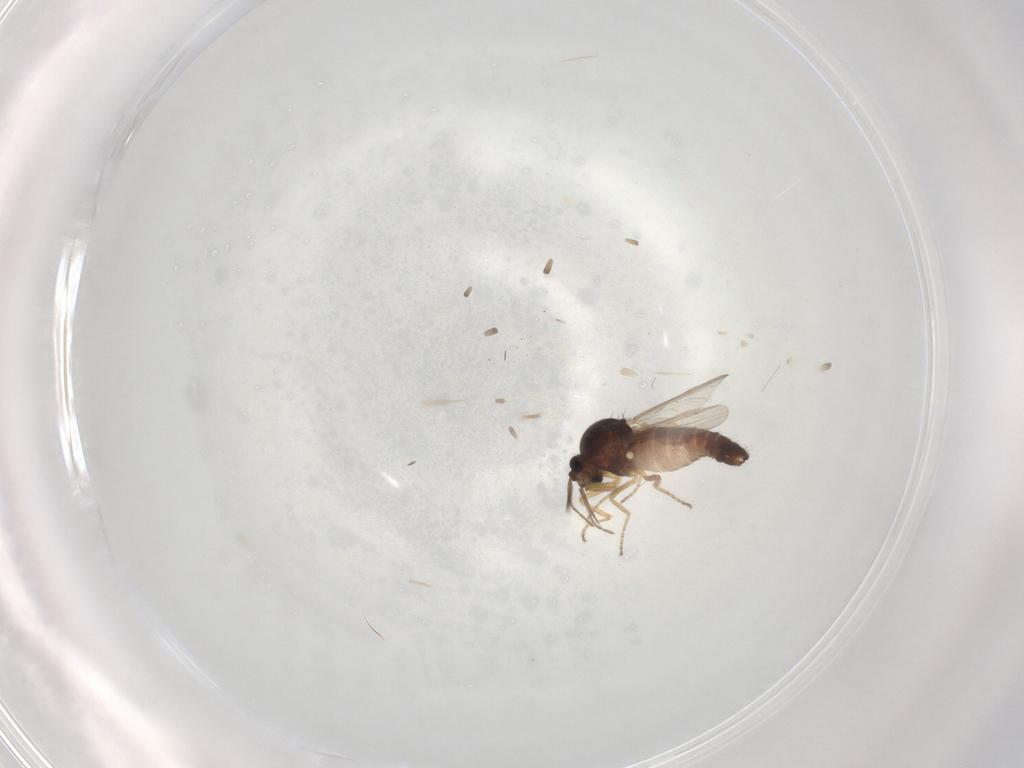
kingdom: Animalia
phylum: Arthropoda
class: Insecta
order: Diptera
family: Ceratopogonidae
